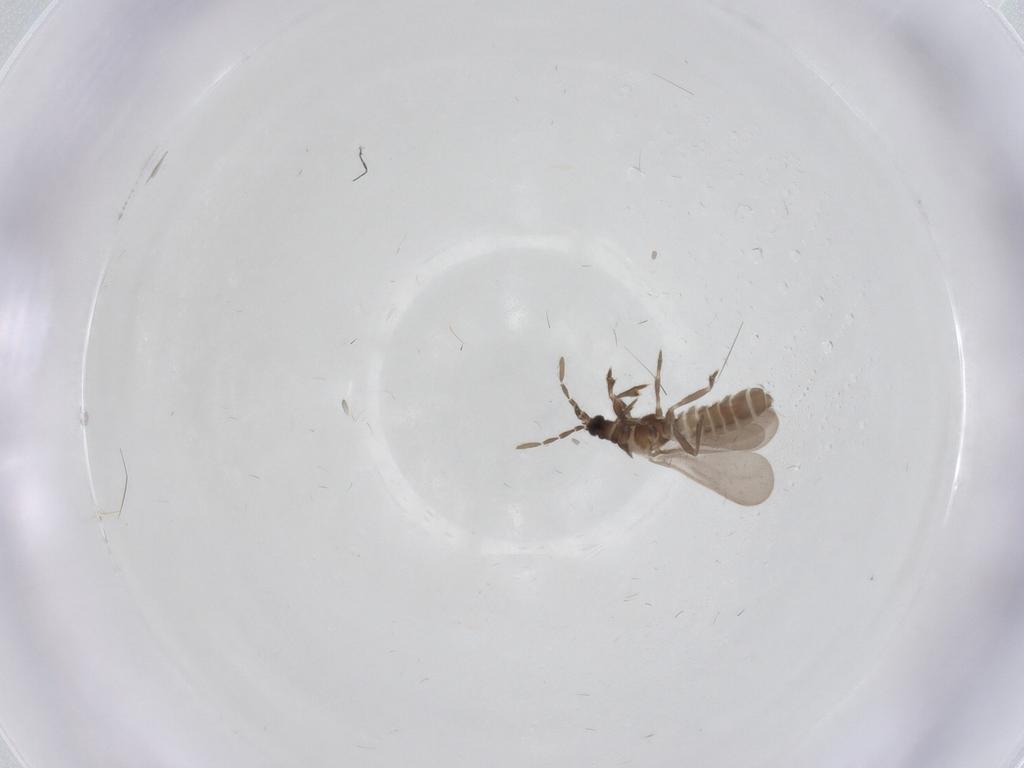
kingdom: Animalia
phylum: Arthropoda
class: Insecta
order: Hemiptera
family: Enicocephalidae
